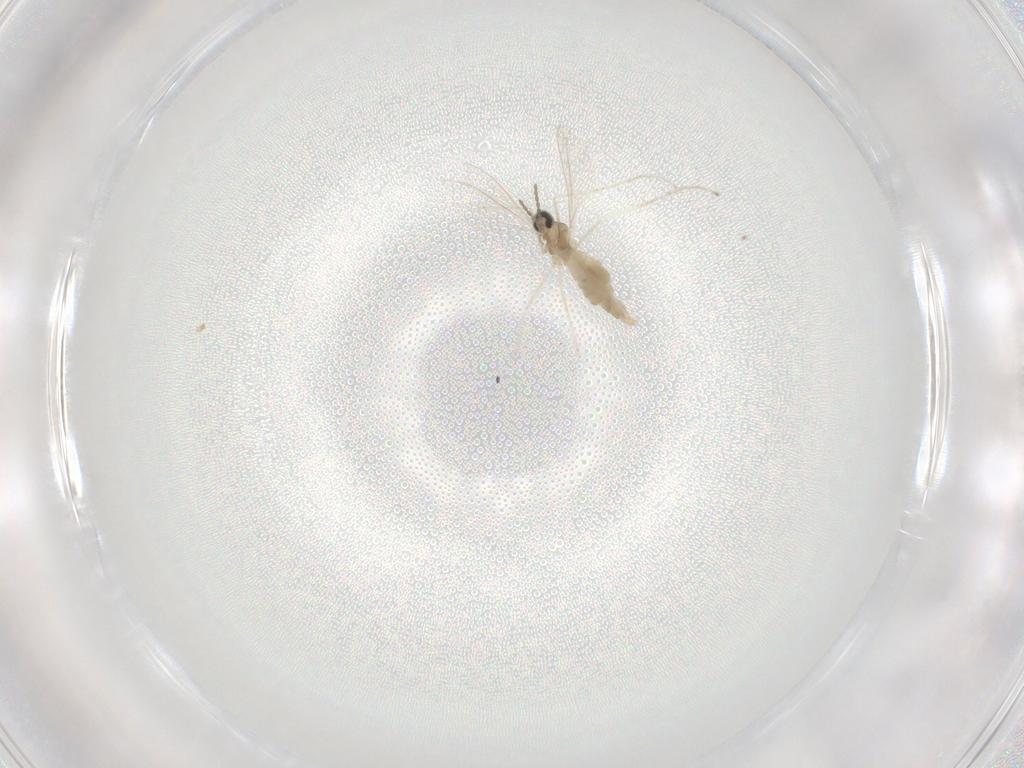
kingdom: Animalia
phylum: Arthropoda
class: Insecta
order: Diptera
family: Cecidomyiidae
